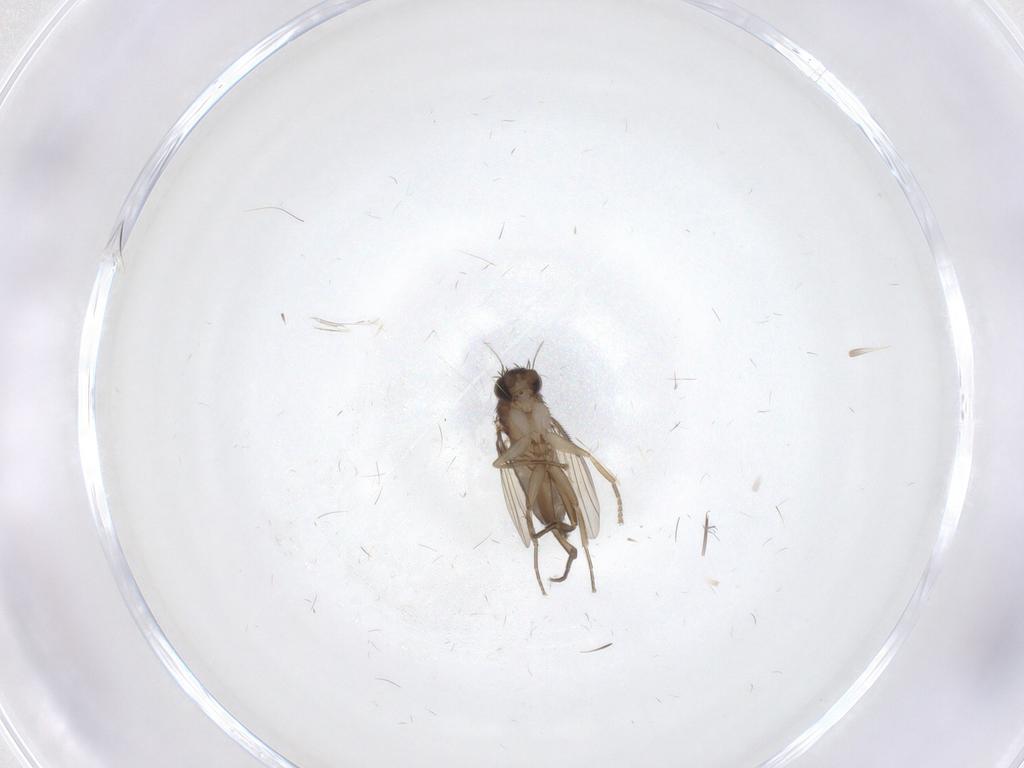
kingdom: Animalia
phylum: Arthropoda
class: Insecta
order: Diptera
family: Phoridae
